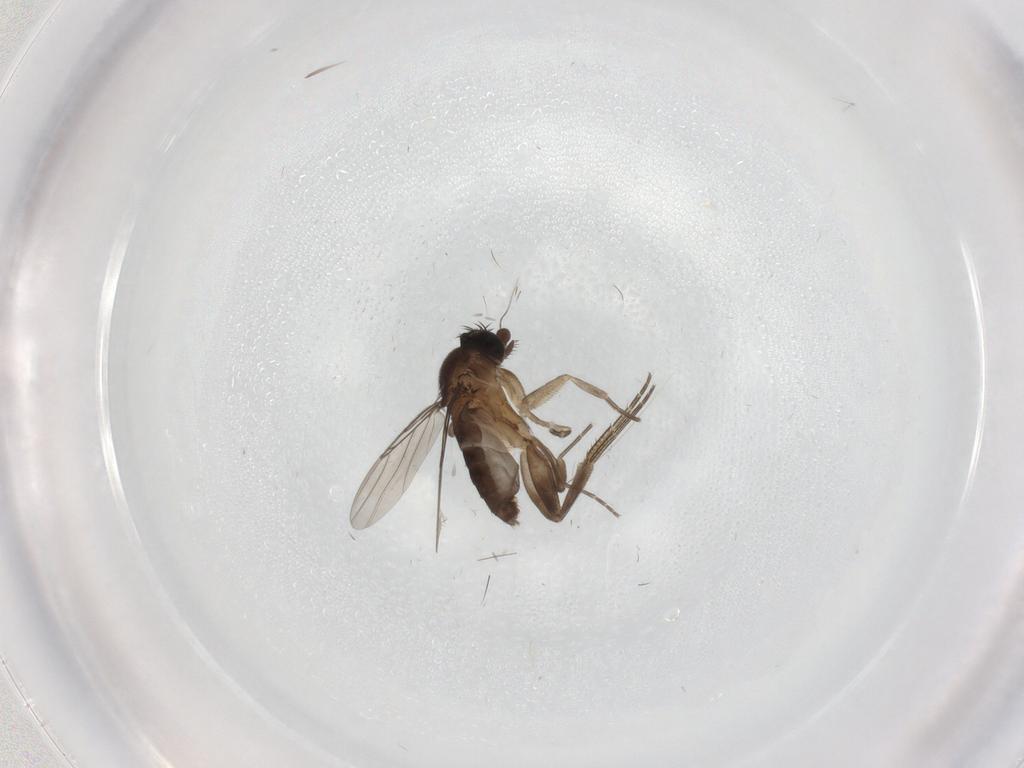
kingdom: Animalia
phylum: Arthropoda
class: Insecta
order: Diptera
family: Phoridae
